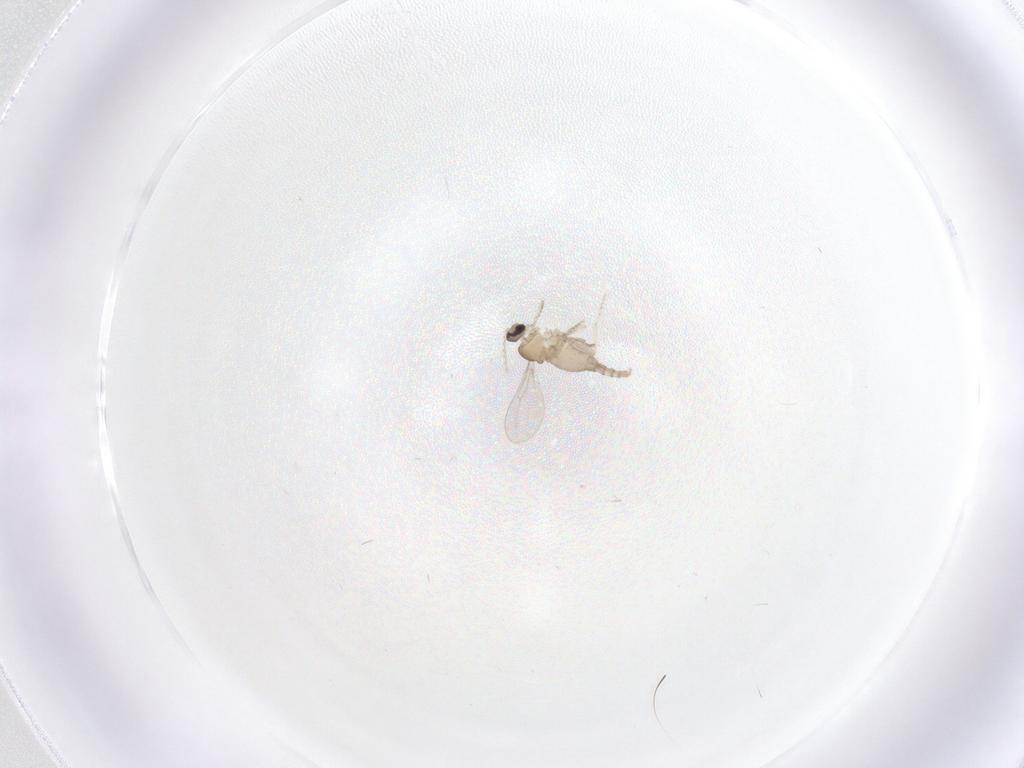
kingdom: Animalia
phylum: Arthropoda
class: Insecta
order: Diptera
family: Cecidomyiidae
